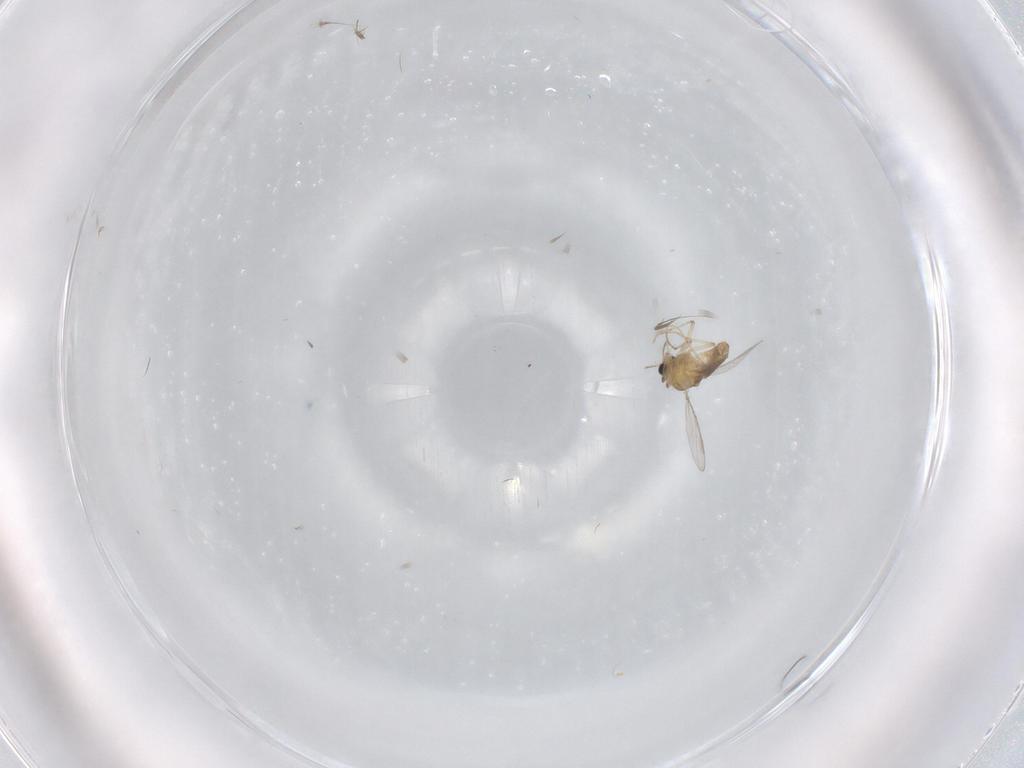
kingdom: Animalia
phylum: Arthropoda
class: Insecta
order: Diptera
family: Chironomidae
